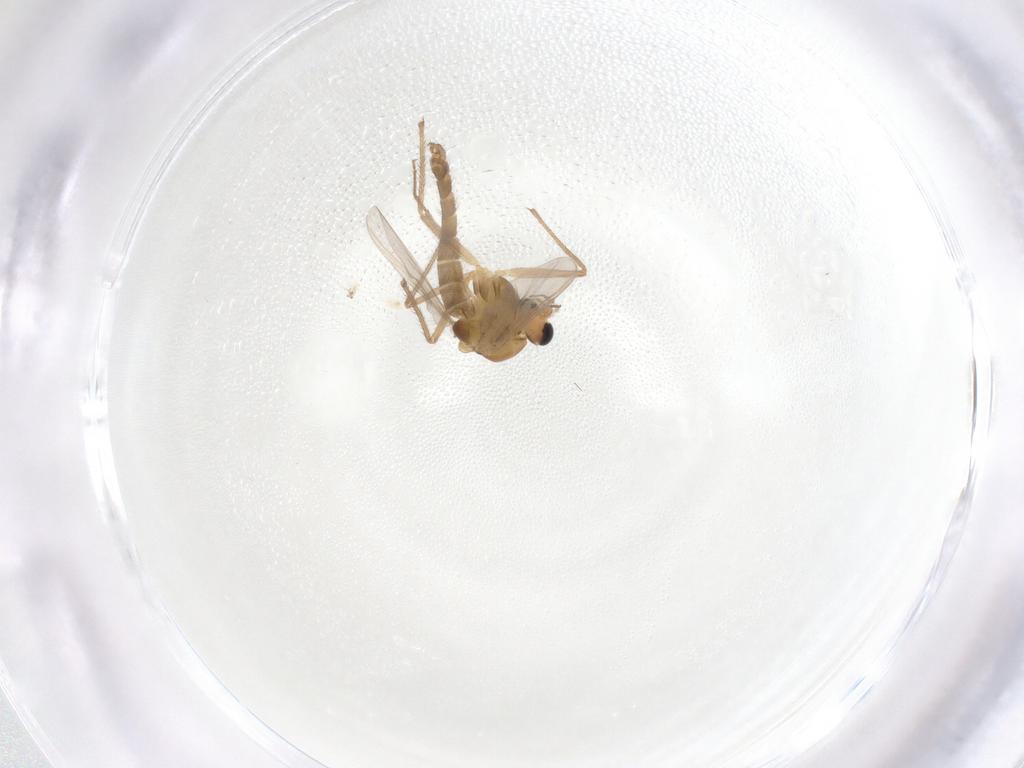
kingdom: Animalia
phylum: Arthropoda
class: Insecta
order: Diptera
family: Chironomidae
